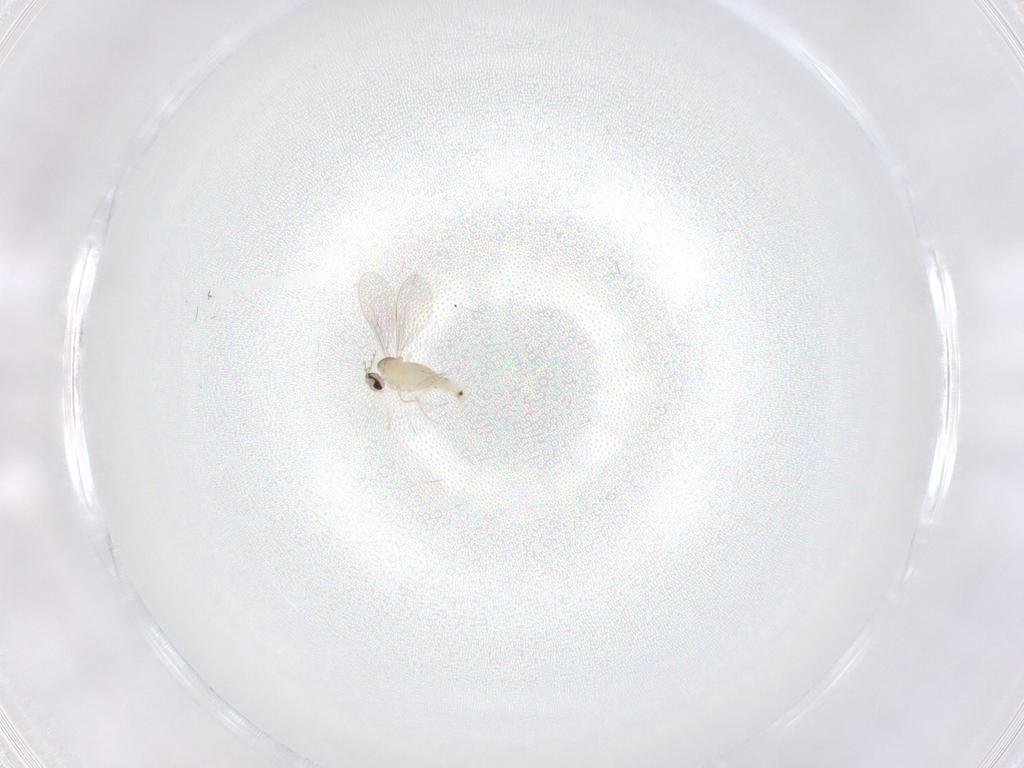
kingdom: Animalia
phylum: Arthropoda
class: Insecta
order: Diptera
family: Cecidomyiidae
